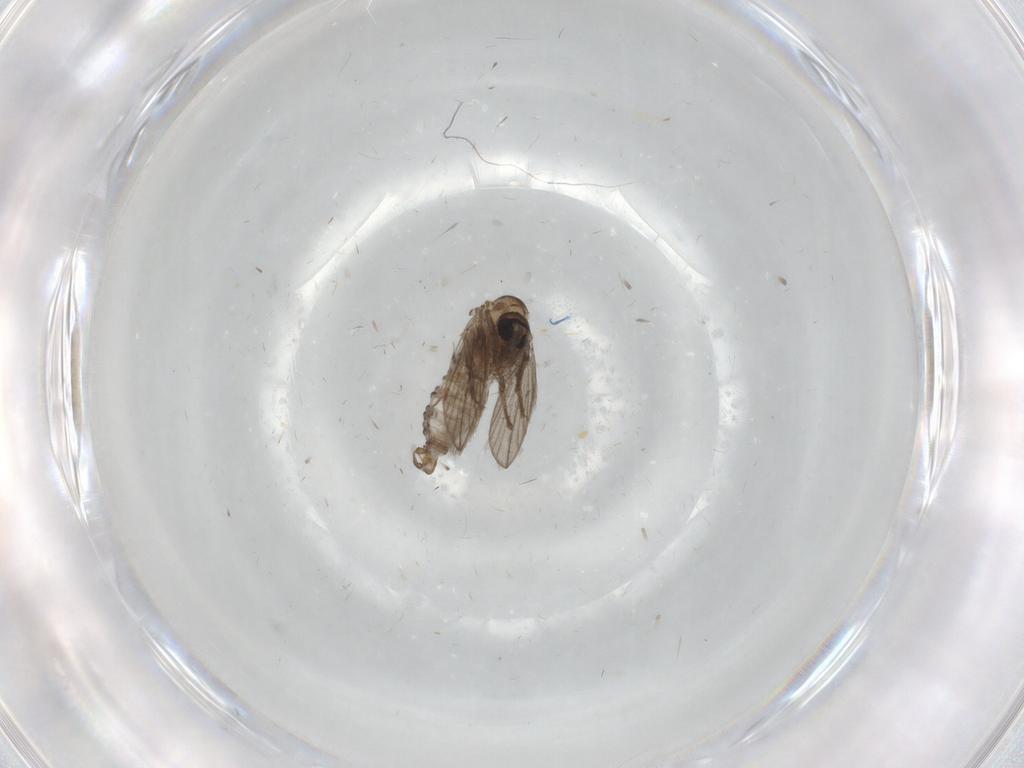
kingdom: Animalia
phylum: Arthropoda
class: Insecta
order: Diptera
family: Psychodidae
